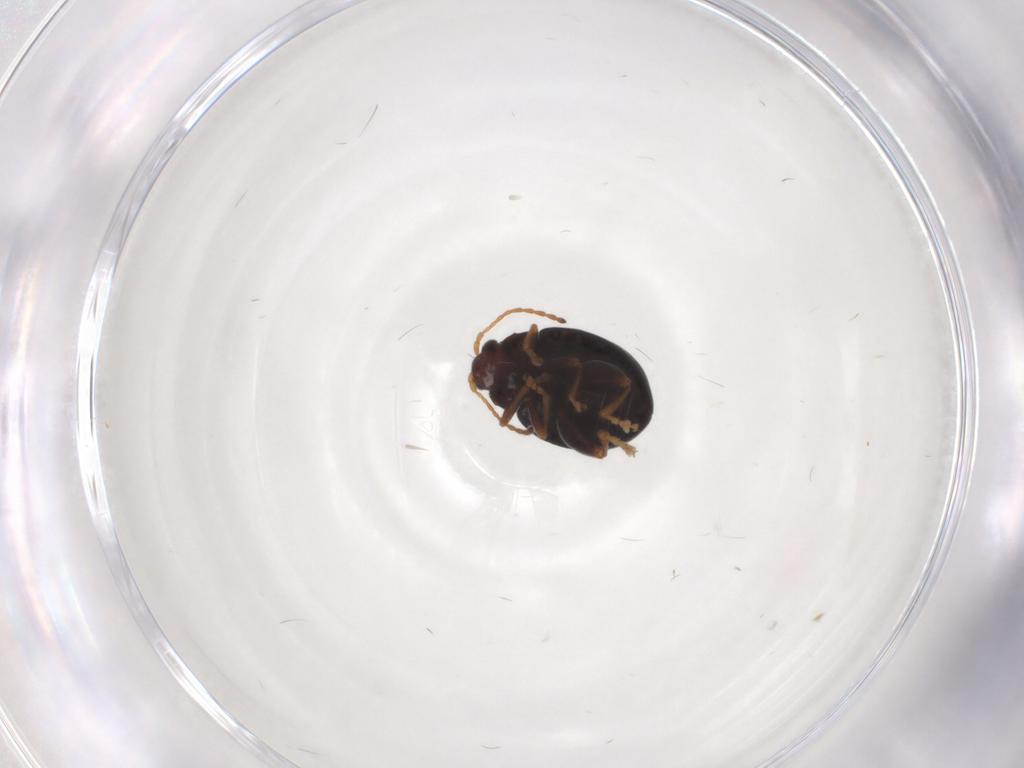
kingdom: Animalia
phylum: Arthropoda
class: Insecta
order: Coleoptera
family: Chrysomelidae
